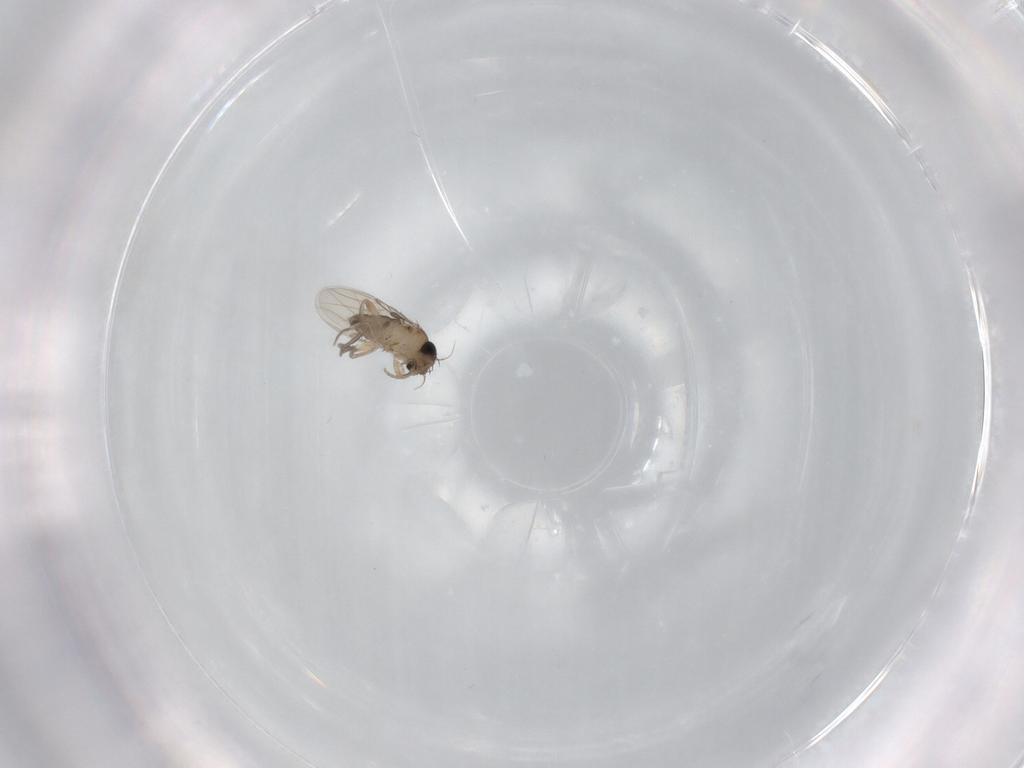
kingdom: Animalia
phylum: Arthropoda
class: Insecta
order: Diptera
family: Phoridae
